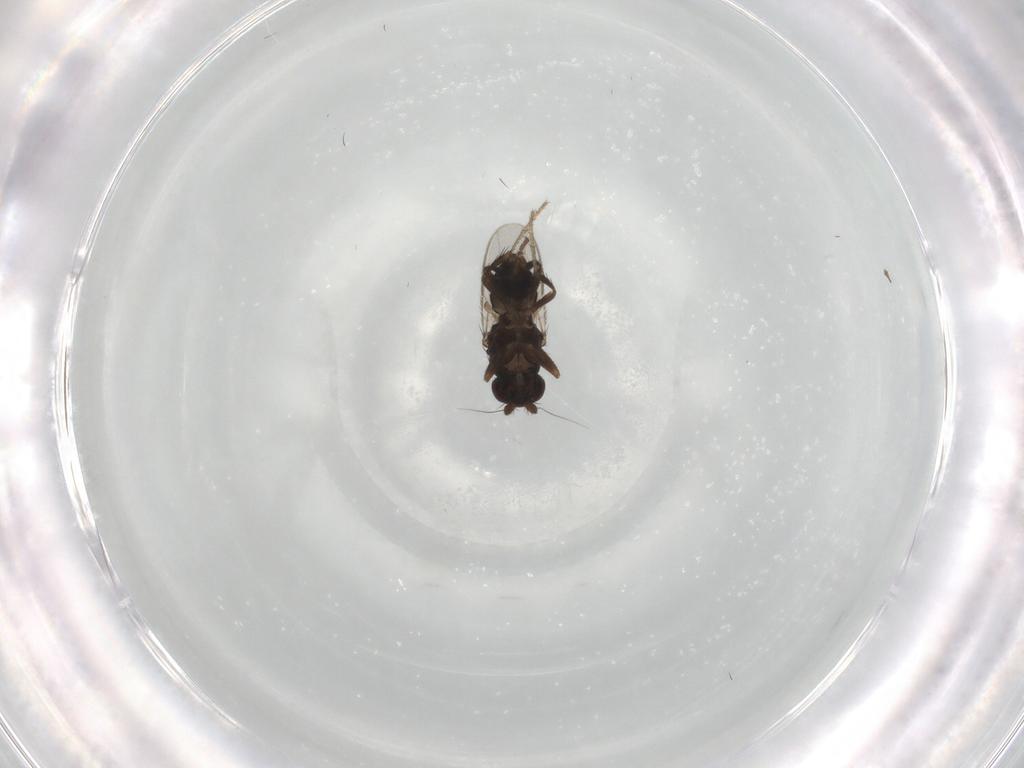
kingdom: Animalia
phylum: Arthropoda
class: Insecta
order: Diptera
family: Sphaeroceridae
